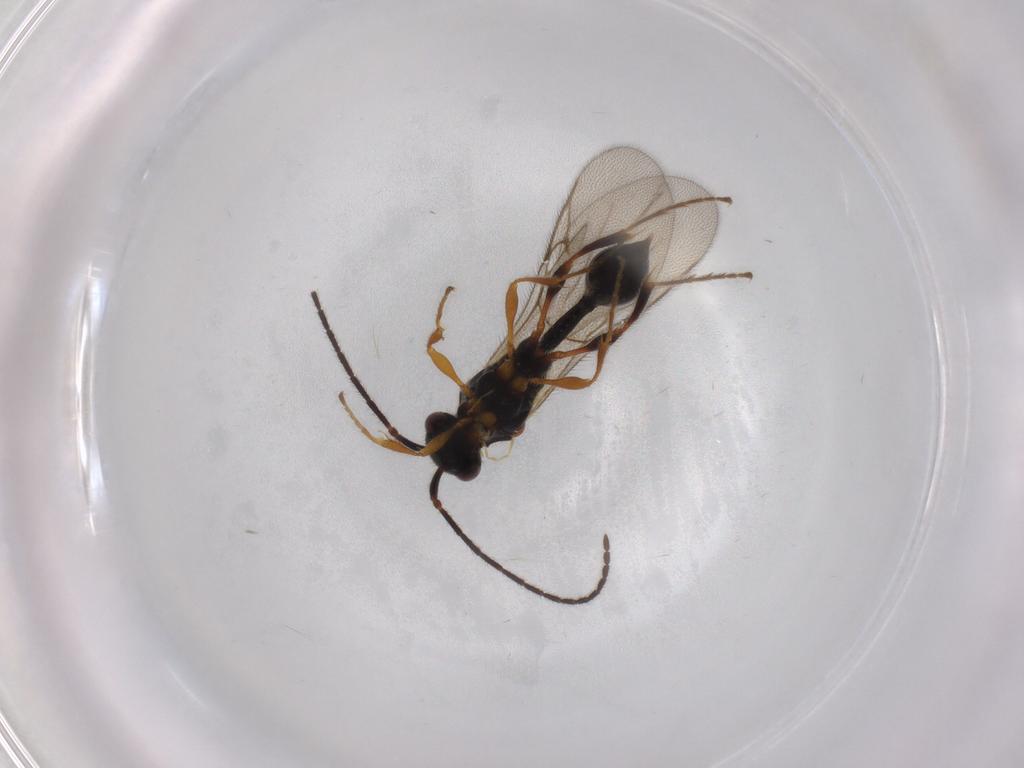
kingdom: Animalia
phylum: Arthropoda
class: Insecta
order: Hymenoptera
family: Diapriidae
